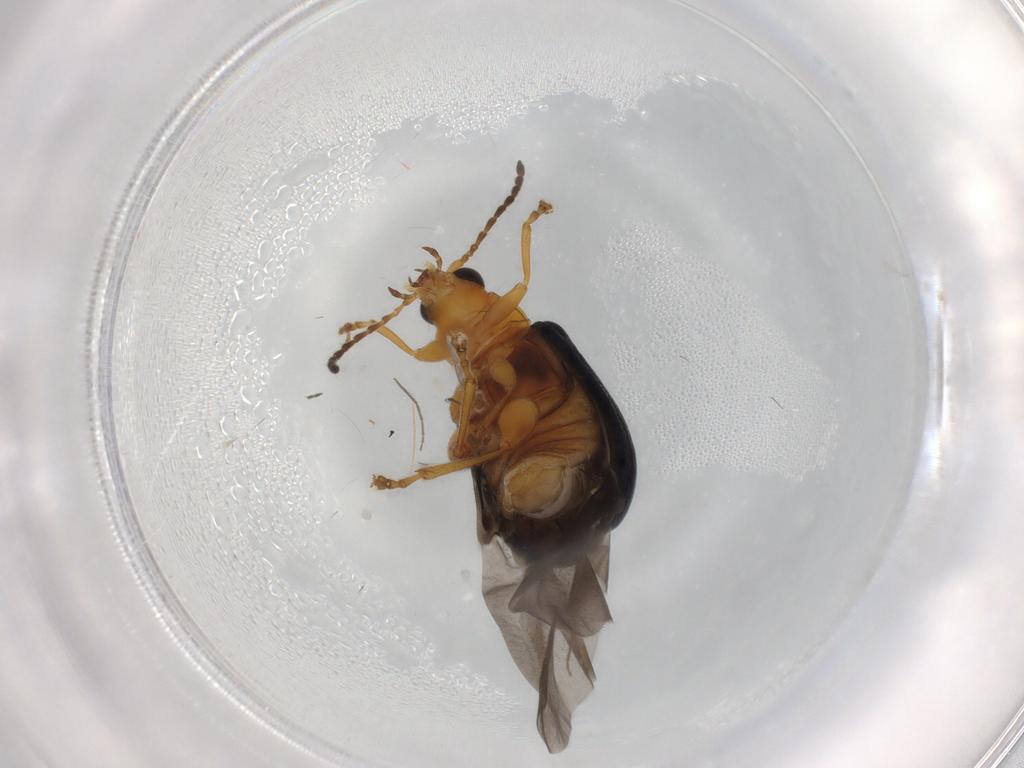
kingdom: Animalia
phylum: Arthropoda
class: Insecta
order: Coleoptera
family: Chrysomelidae
